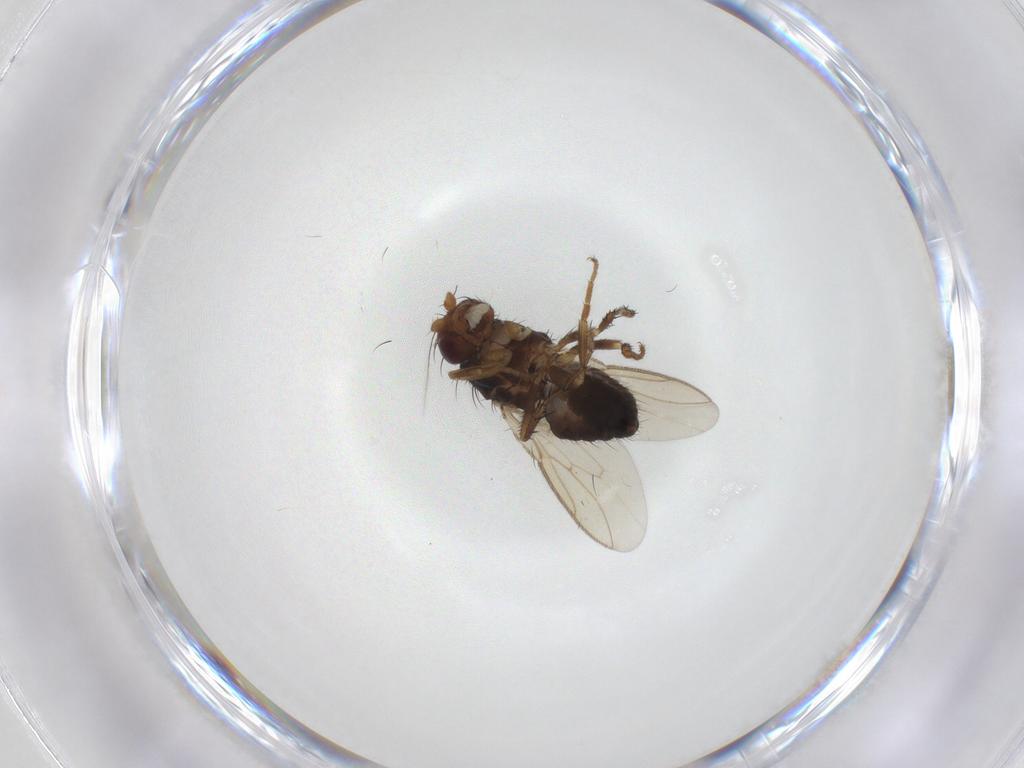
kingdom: Animalia
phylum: Arthropoda
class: Insecta
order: Diptera
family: Sphaeroceridae
